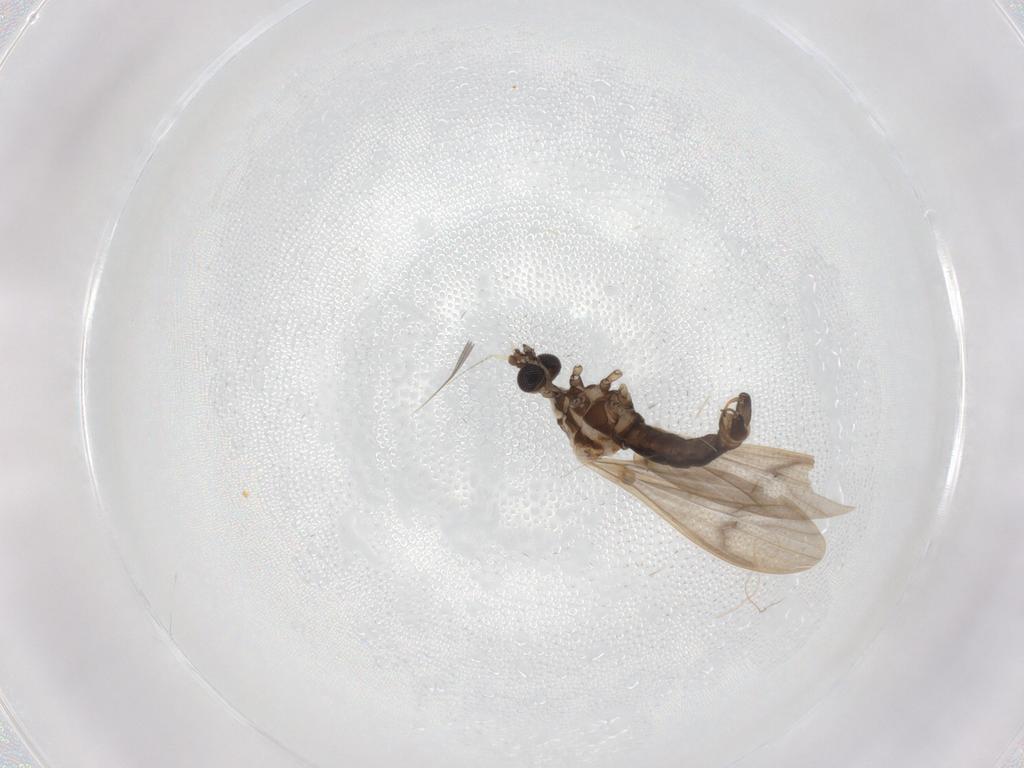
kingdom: Animalia
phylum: Arthropoda
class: Insecta
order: Diptera
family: Limoniidae
